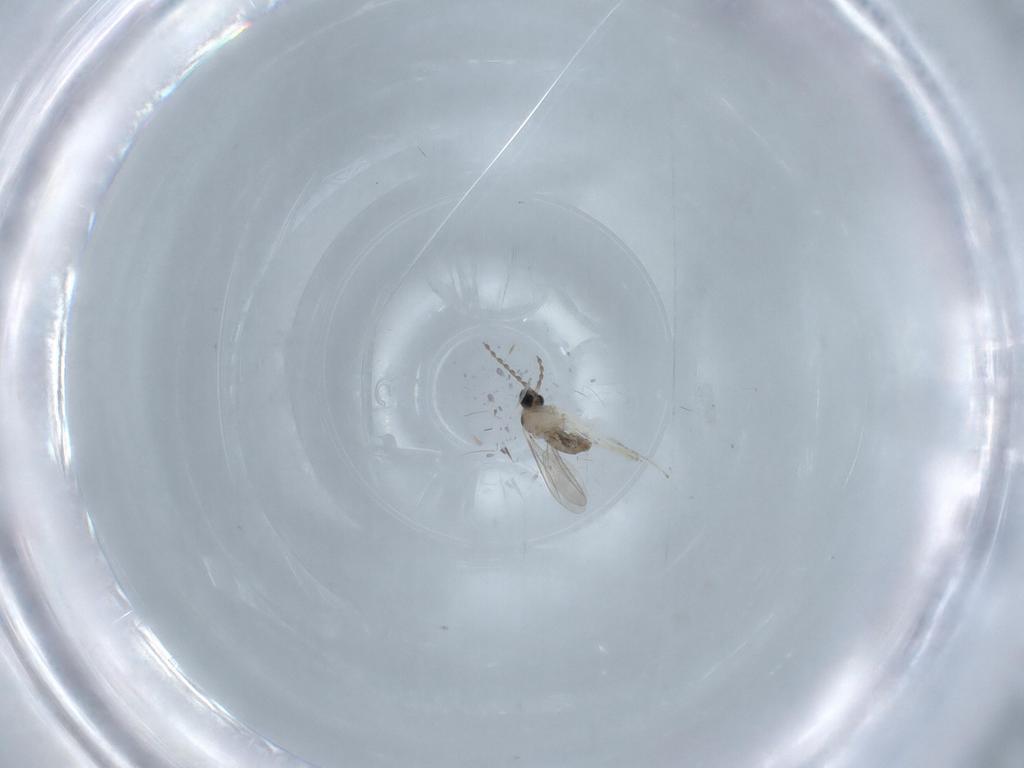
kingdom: Animalia
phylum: Arthropoda
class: Insecta
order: Diptera
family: Cecidomyiidae
